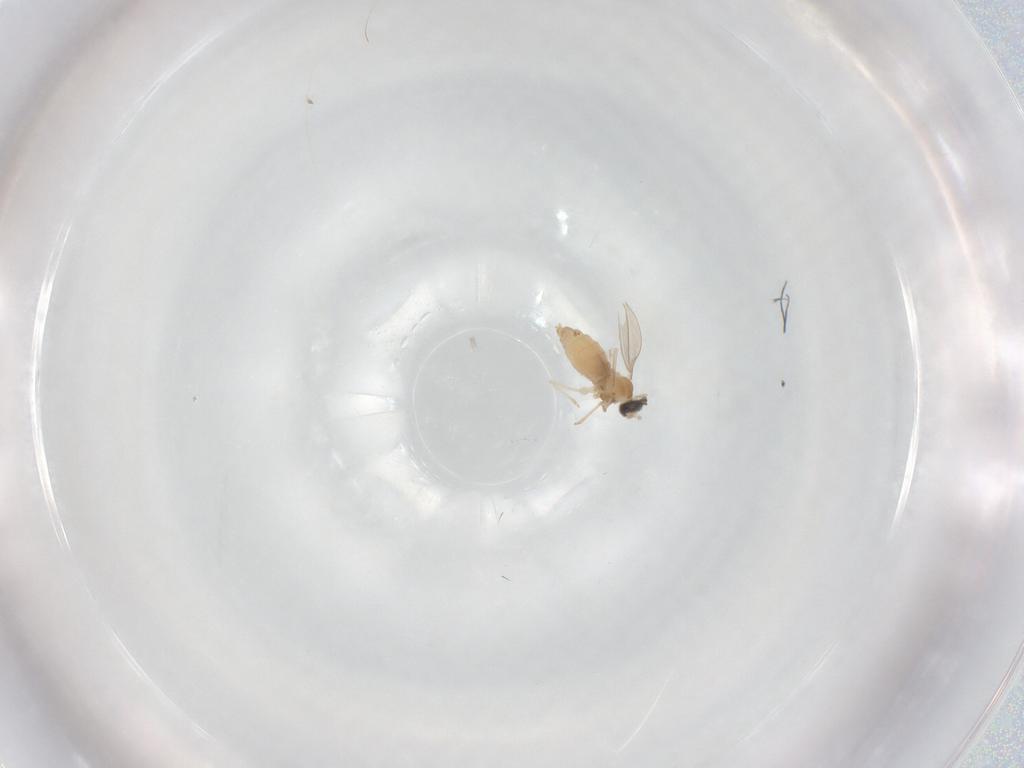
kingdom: Animalia
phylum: Arthropoda
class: Insecta
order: Diptera
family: Cecidomyiidae
